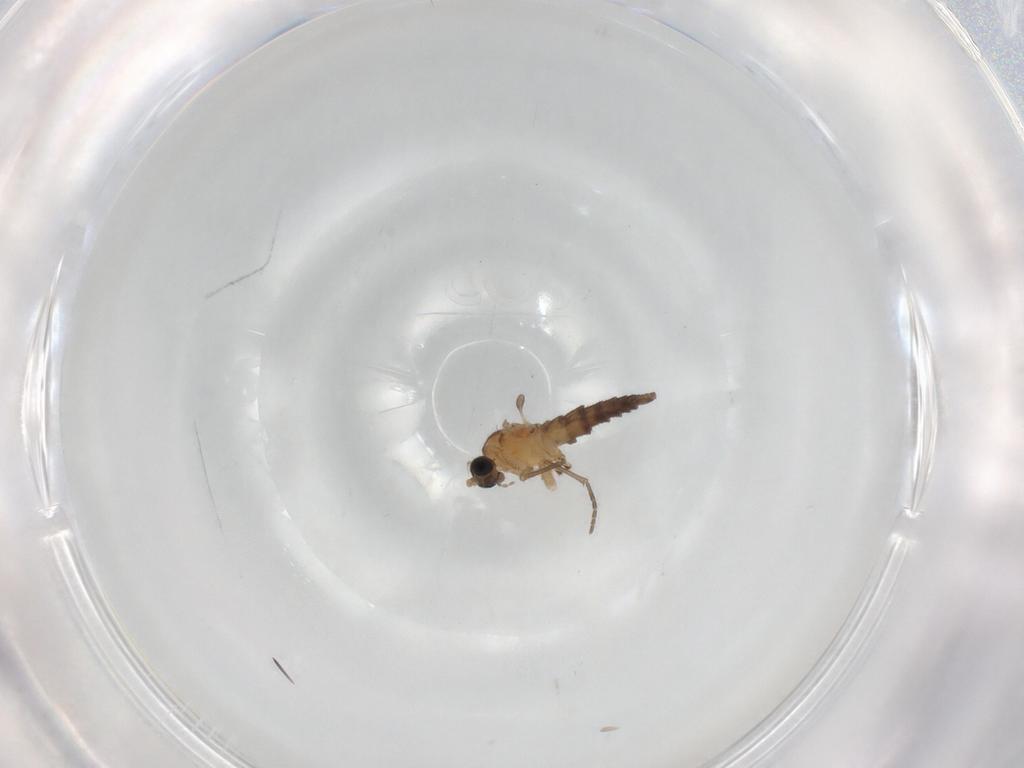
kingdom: Animalia
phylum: Arthropoda
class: Insecta
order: Diptera
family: Sciaridae
